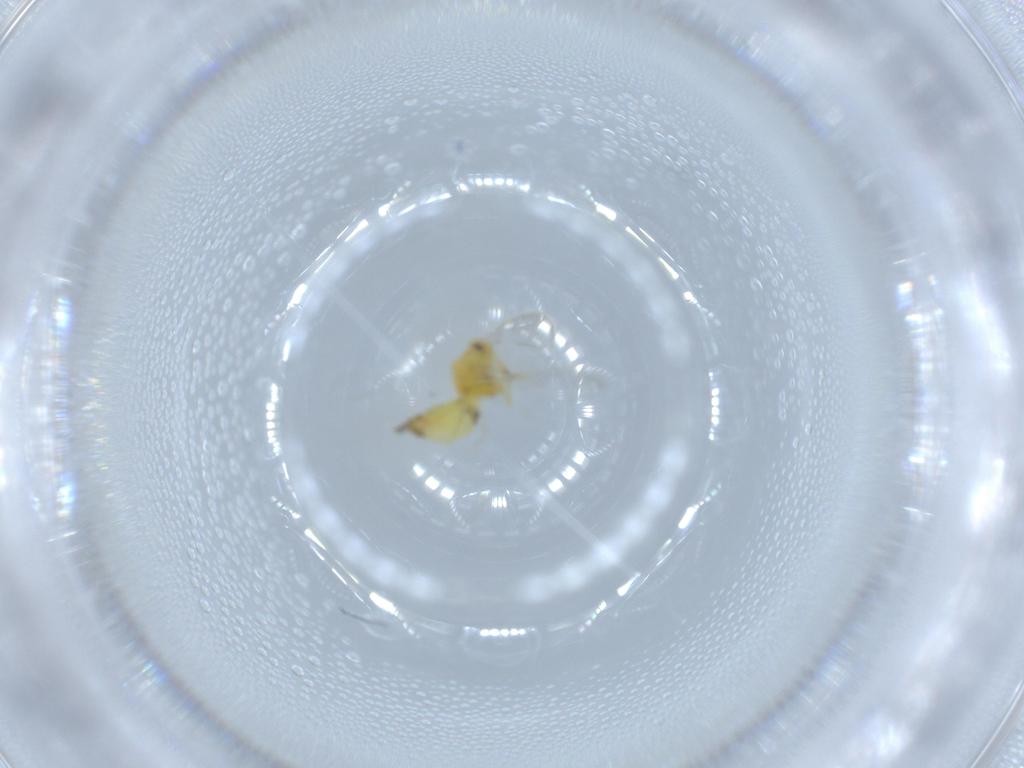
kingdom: Animalia
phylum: Arthropoda
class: Insecta
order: Hemiptera
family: Aleyrodidae
